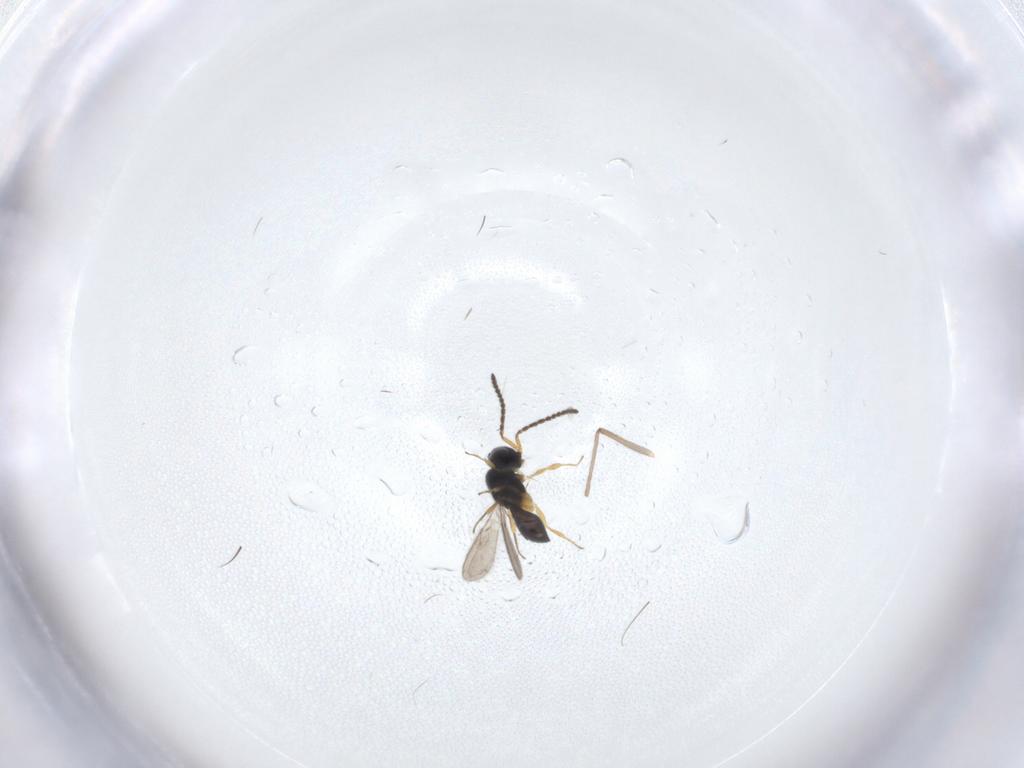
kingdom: Animalia
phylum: Arthropoda
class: Insecta
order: Hymenoptera
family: Scelionidae
